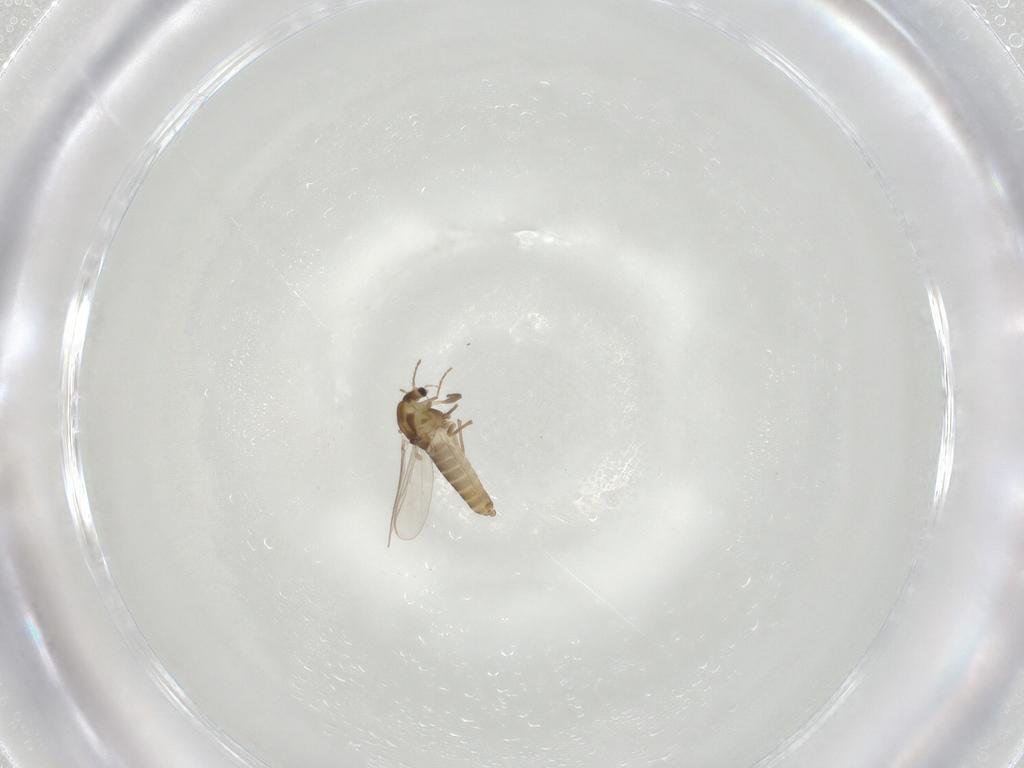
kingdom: Animalia
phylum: Arthropoda
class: Insecta
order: Diptera
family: Chironomidae
